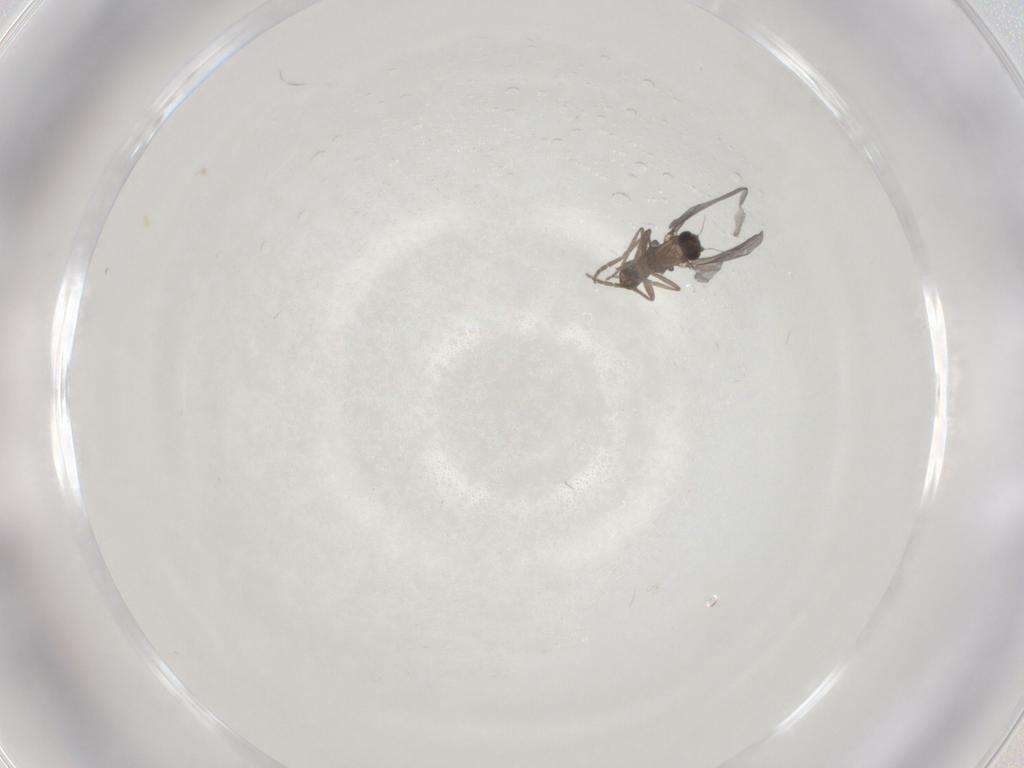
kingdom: Animalia
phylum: Arthropoda
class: Insecta
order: Diptera
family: Cecidomyiidae
